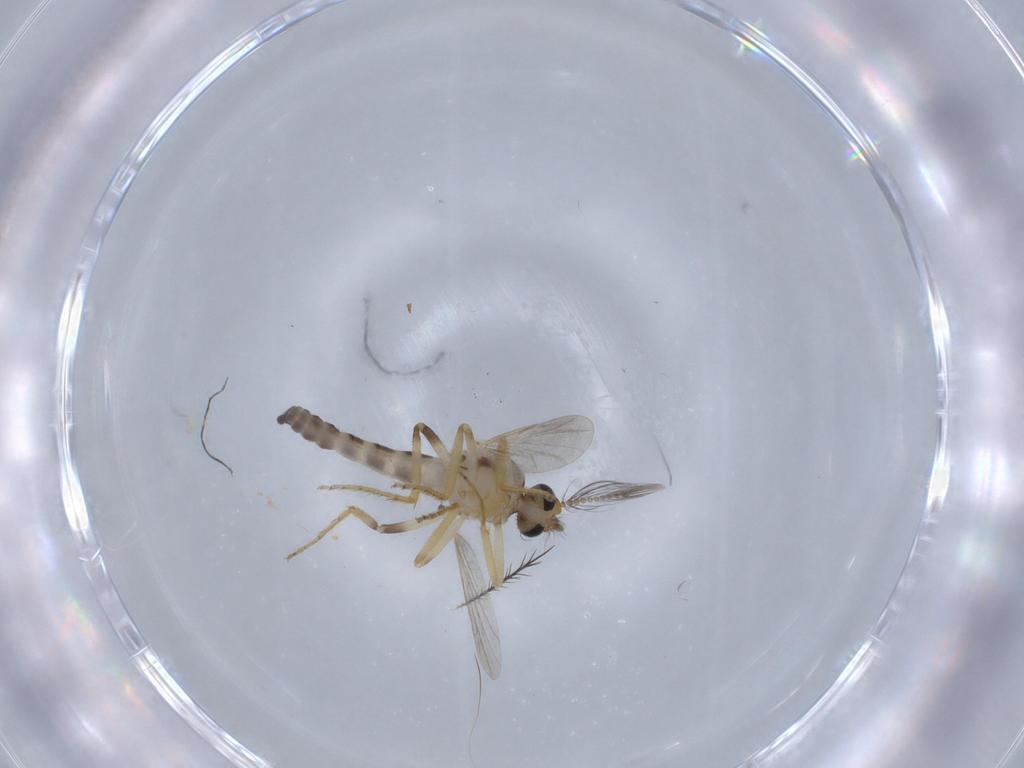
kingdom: Animalia
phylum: Arthropoda
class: Insecta
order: Diptera
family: Ceratopogonidae
